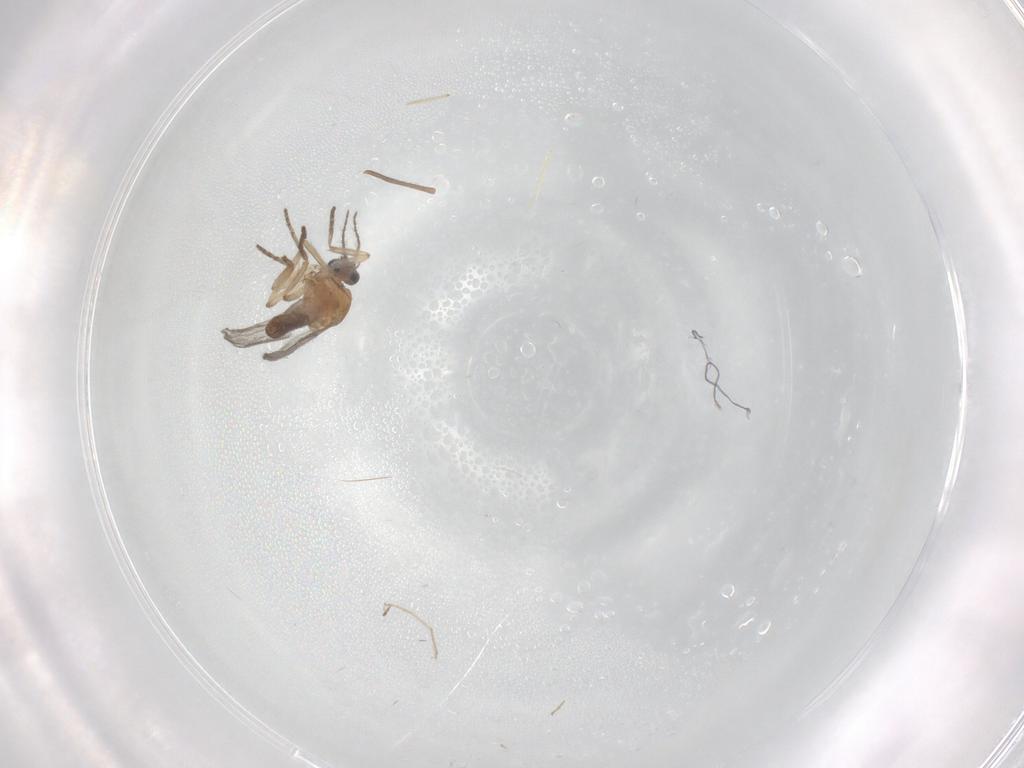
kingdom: Animalia
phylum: Arthropoda
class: Insecta
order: Diptera
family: Chironomidae
